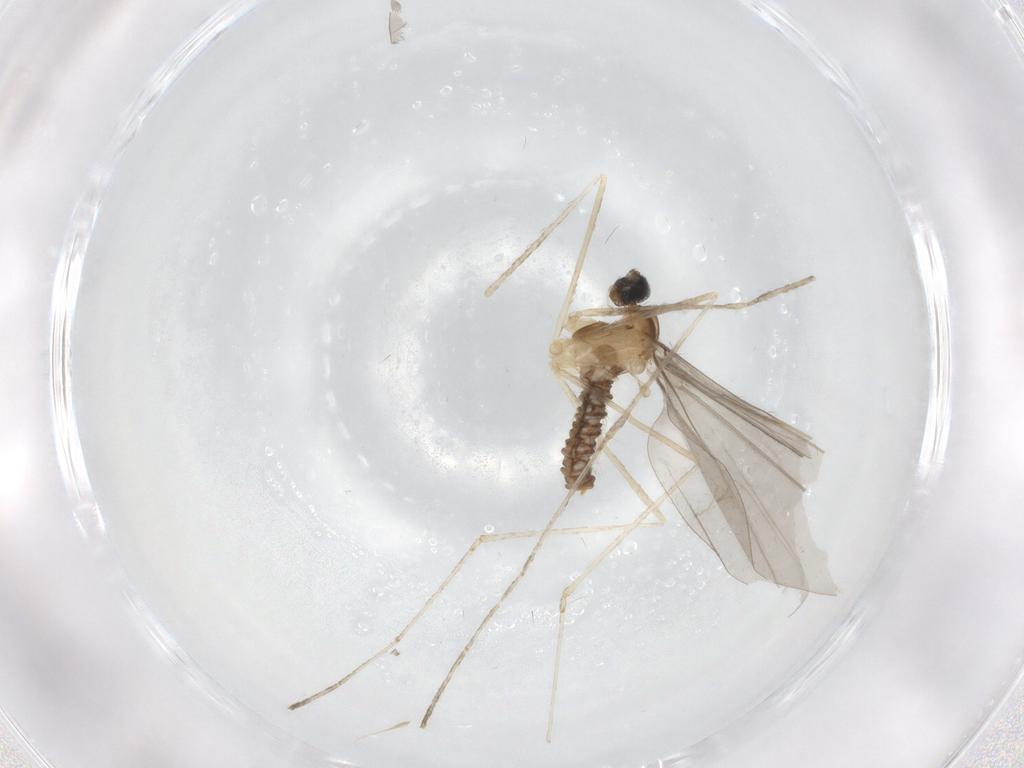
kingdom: Animalia
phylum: Arthropoda
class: Insecta
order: Diptera
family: Cecidomyiidae
